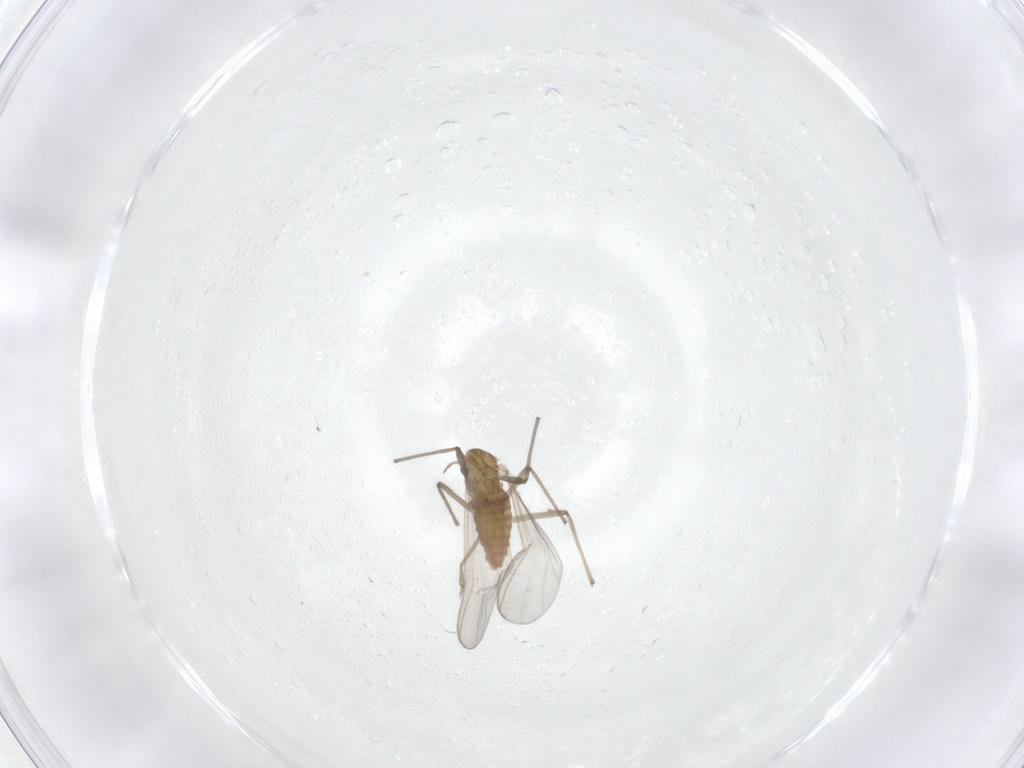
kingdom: Animalia
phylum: Arthropoda
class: Insecta
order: Diptera
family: Chironomidae
